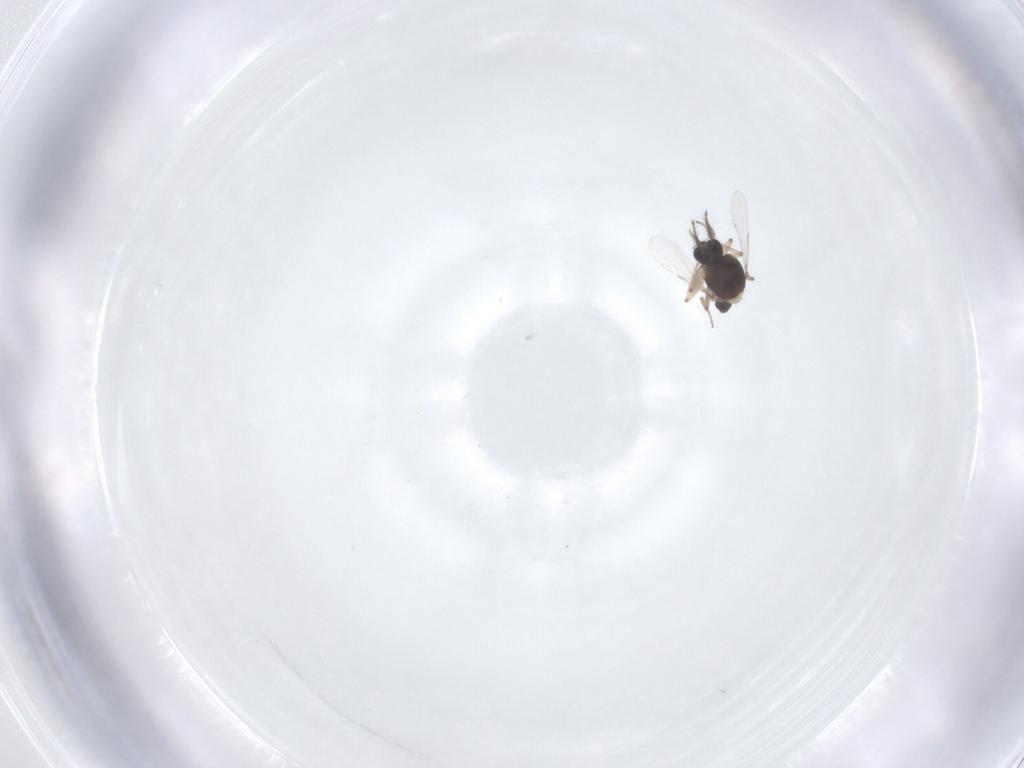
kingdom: Animalia
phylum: Arthropoda
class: Insecta
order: Diptera
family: Ceratopogonidae
